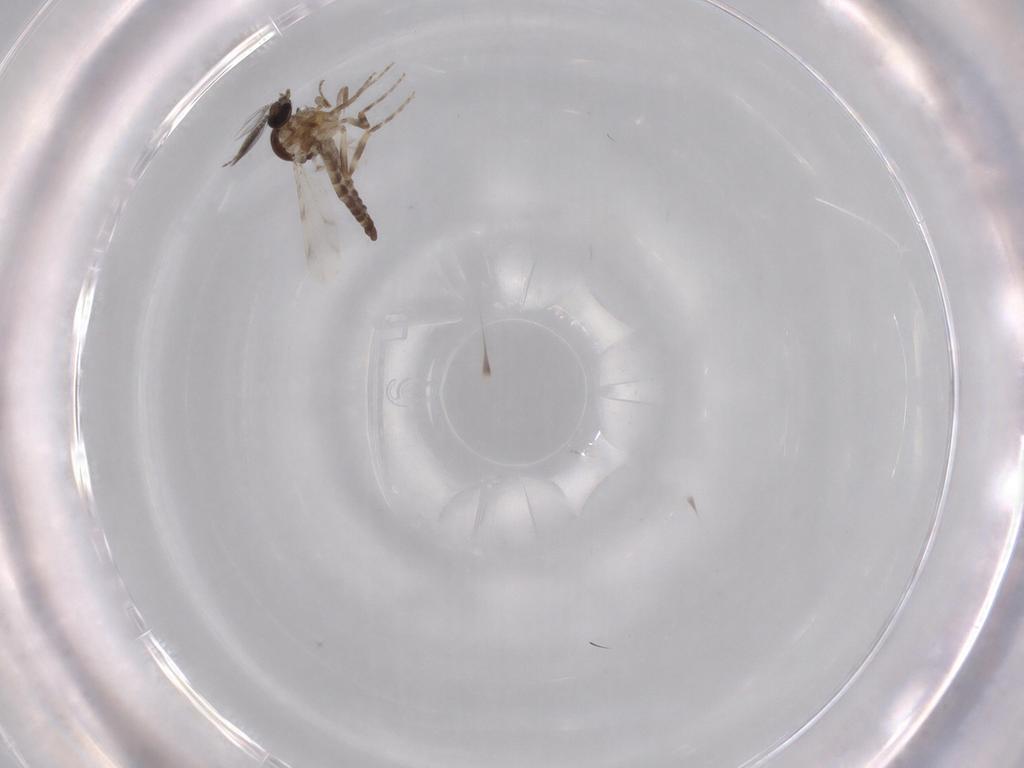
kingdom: Animalia
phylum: Arthropoda
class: Insecta
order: Diptera
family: Ceratopogonidae
